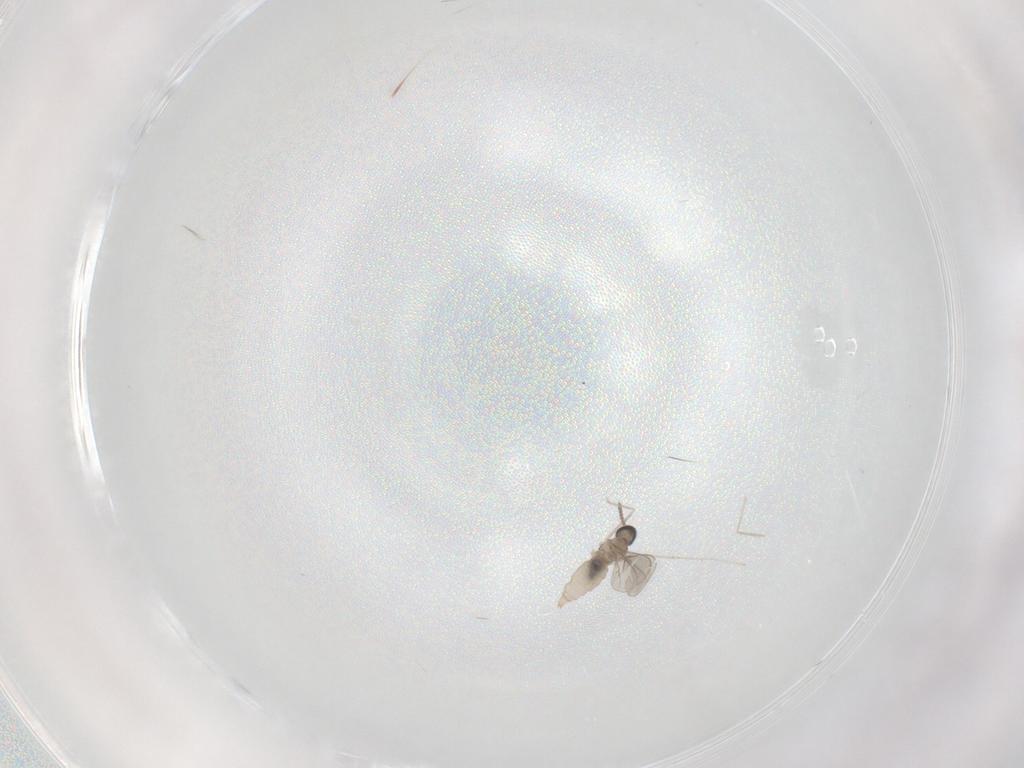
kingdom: Animalia
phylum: Arthropoda
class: Insecta
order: Diptera
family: Cecidomyiidae
